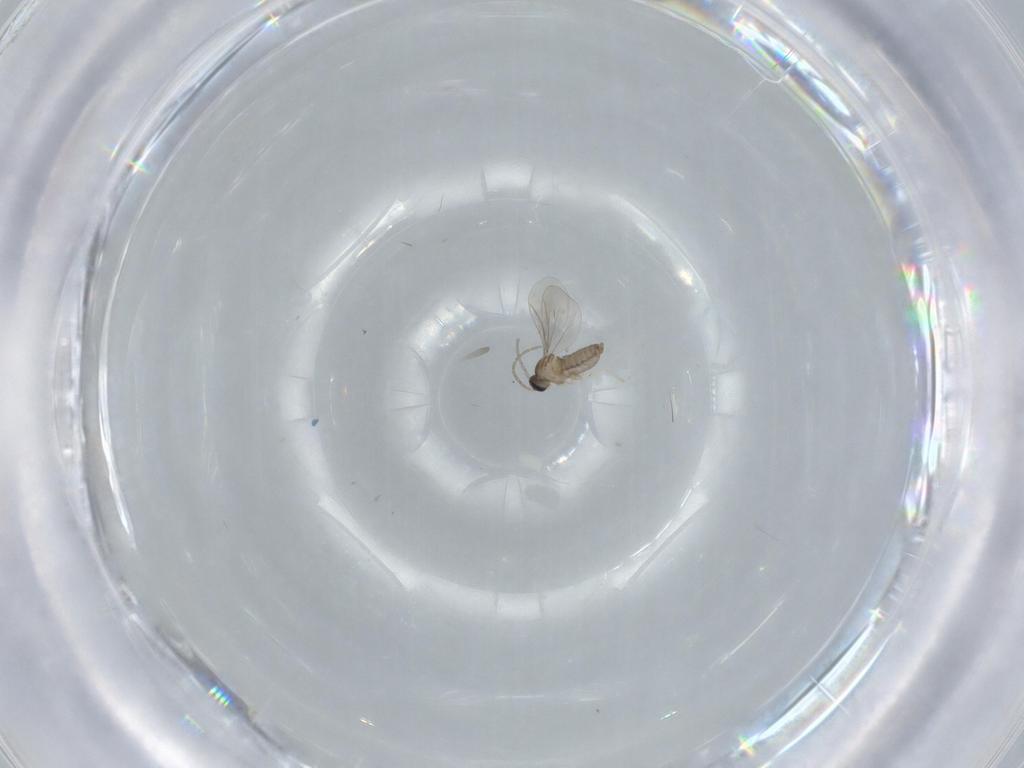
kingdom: Animalia
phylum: Arthropoda
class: Insecta
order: Diptera
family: Cecidomyiidae
